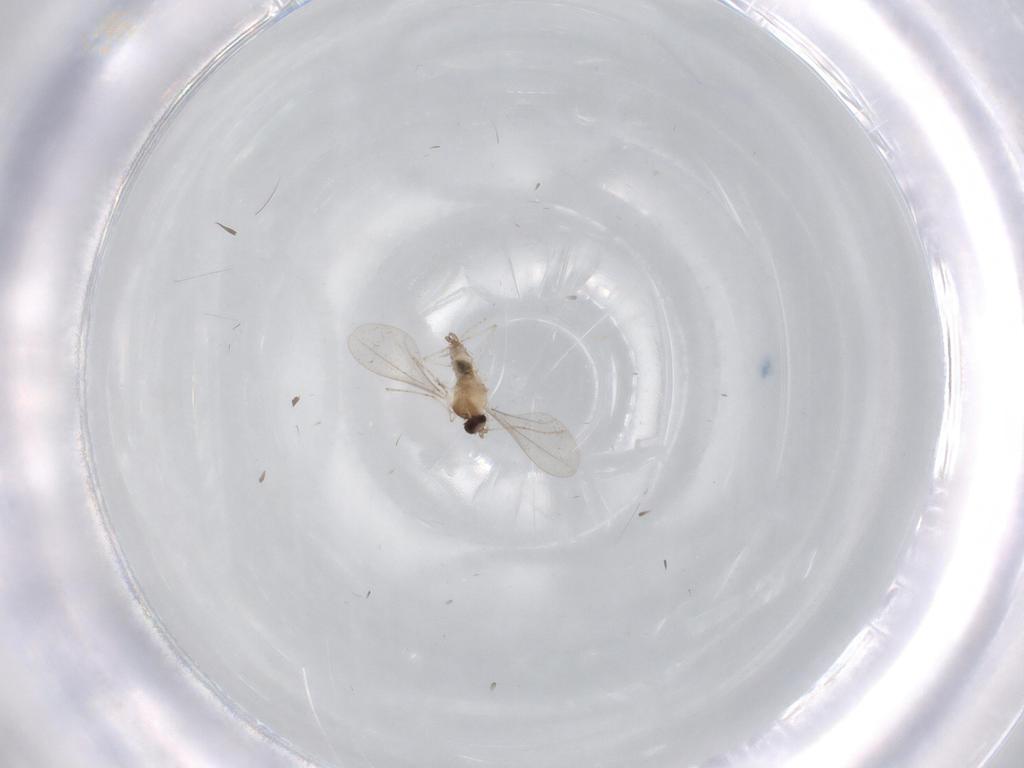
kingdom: Animalia
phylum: Arthropoda
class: Insecta
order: Diptera
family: Cecidomyiidae
